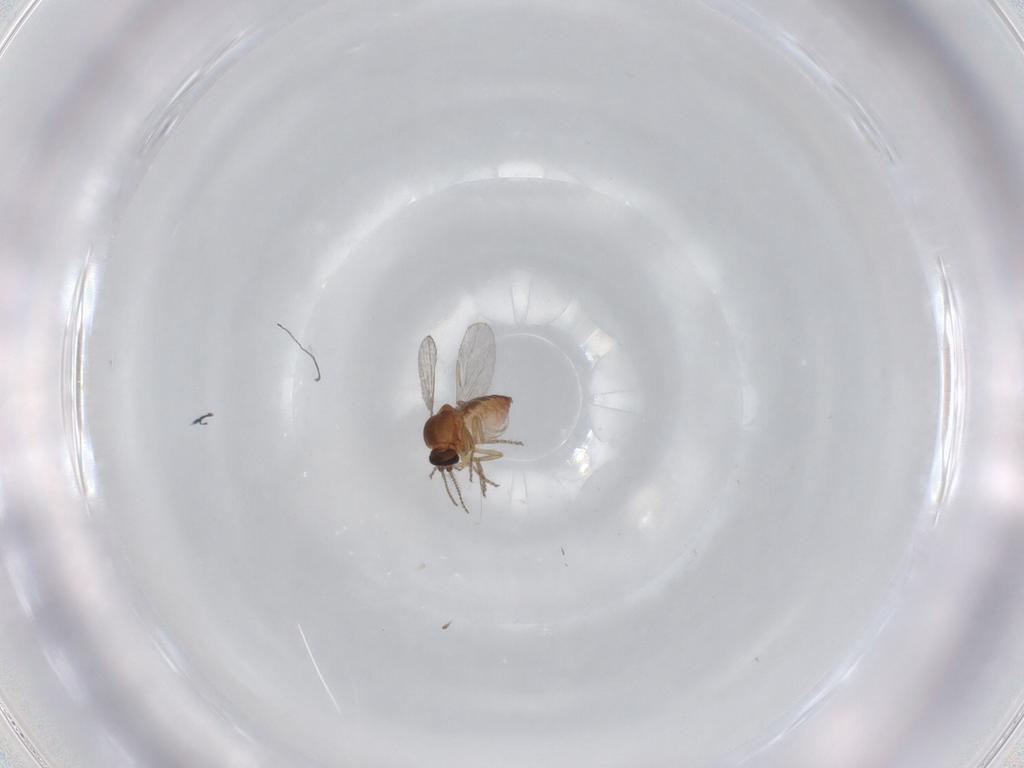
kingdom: Animalia
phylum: Arthropoda
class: Insecta
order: Diptera
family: Ceratopogonidae
